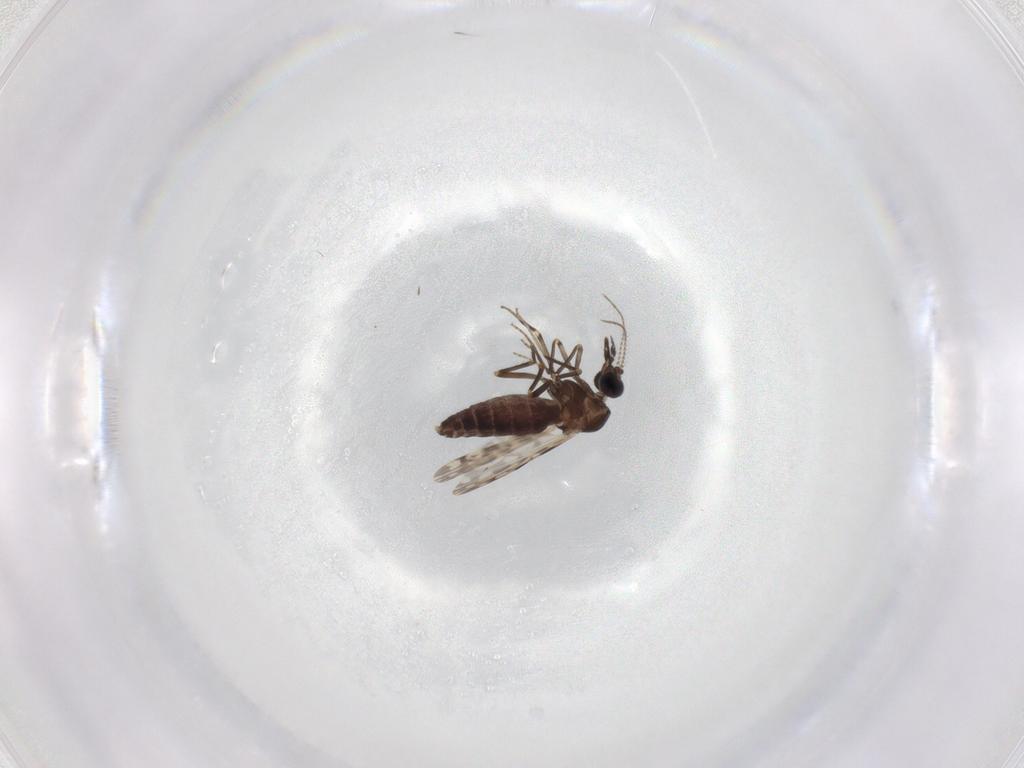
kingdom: Animalia
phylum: Arthropoda
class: Insecta
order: Diptera
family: Ceratopogonidae
